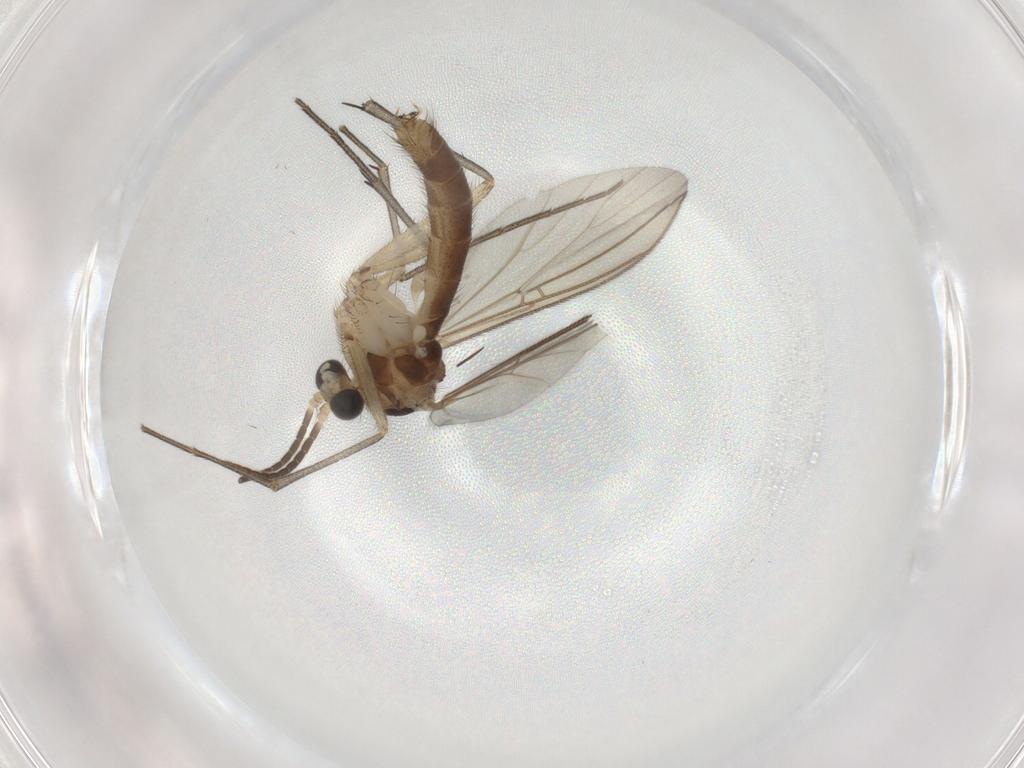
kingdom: Animalia
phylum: Arthropoda
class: Insecta
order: Diptera
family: Mycetophilidae
